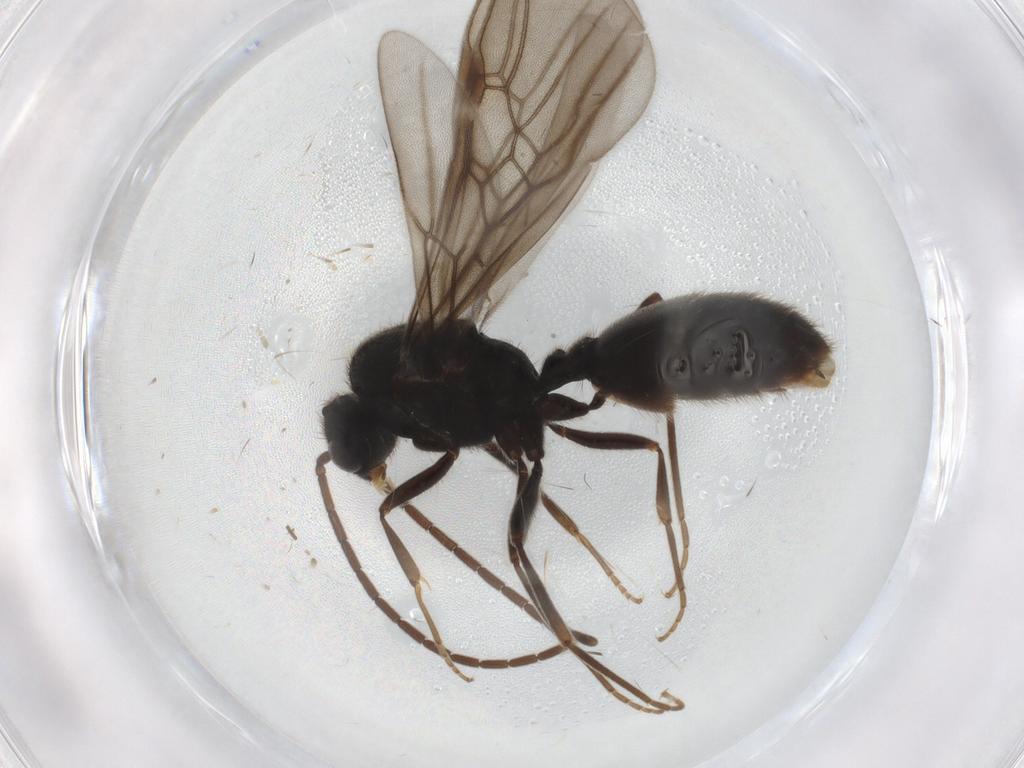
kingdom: Animalia
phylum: Arthropoda
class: Insecta
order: Hymenoptera
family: Formicidae
